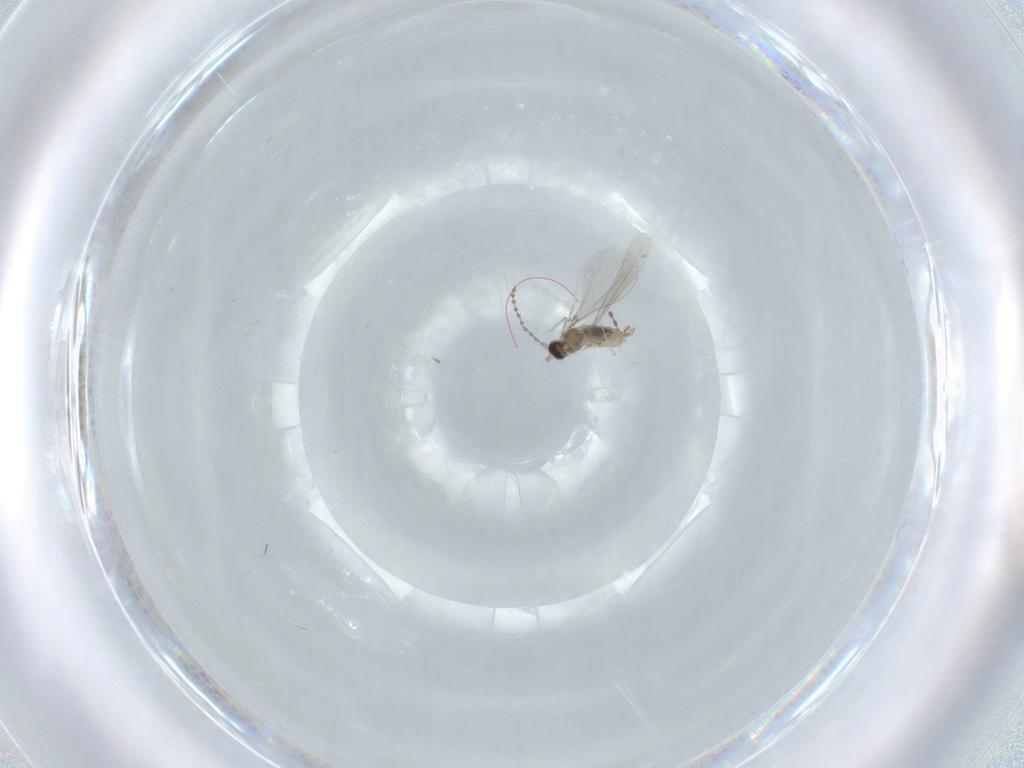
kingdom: Animalia
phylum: Arthropoda
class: Insecta
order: Diptera
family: Cecidomyiidae
